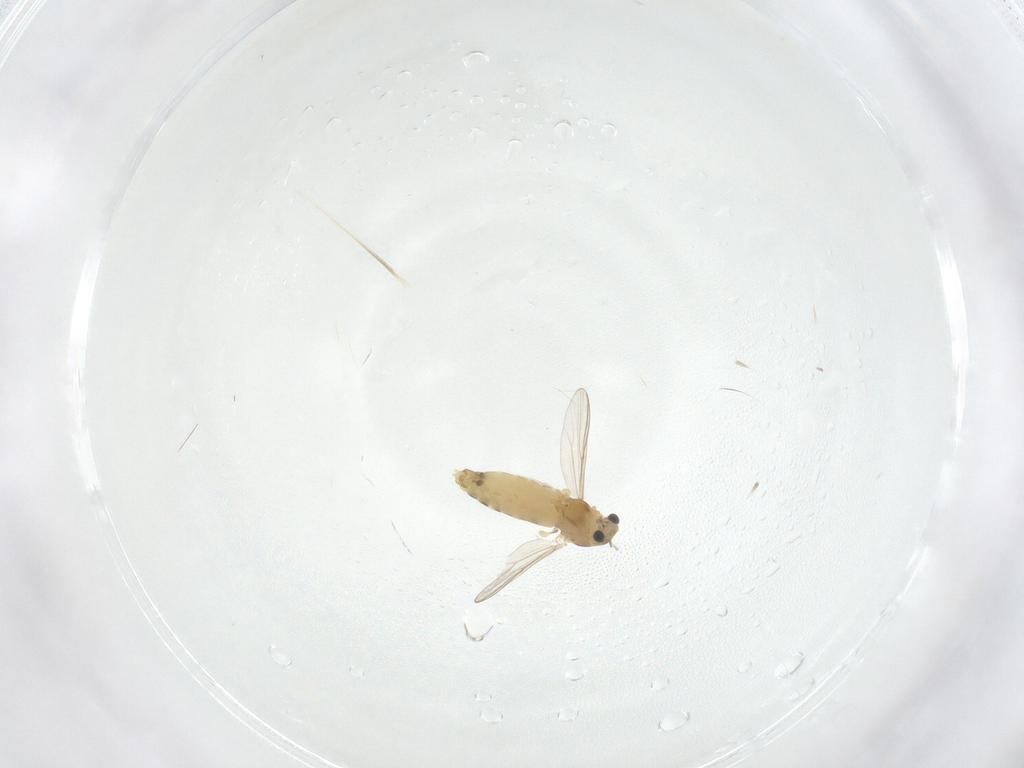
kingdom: Animalia
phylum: Arthropoda
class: Insecta
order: Diptera
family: Chironomidae
